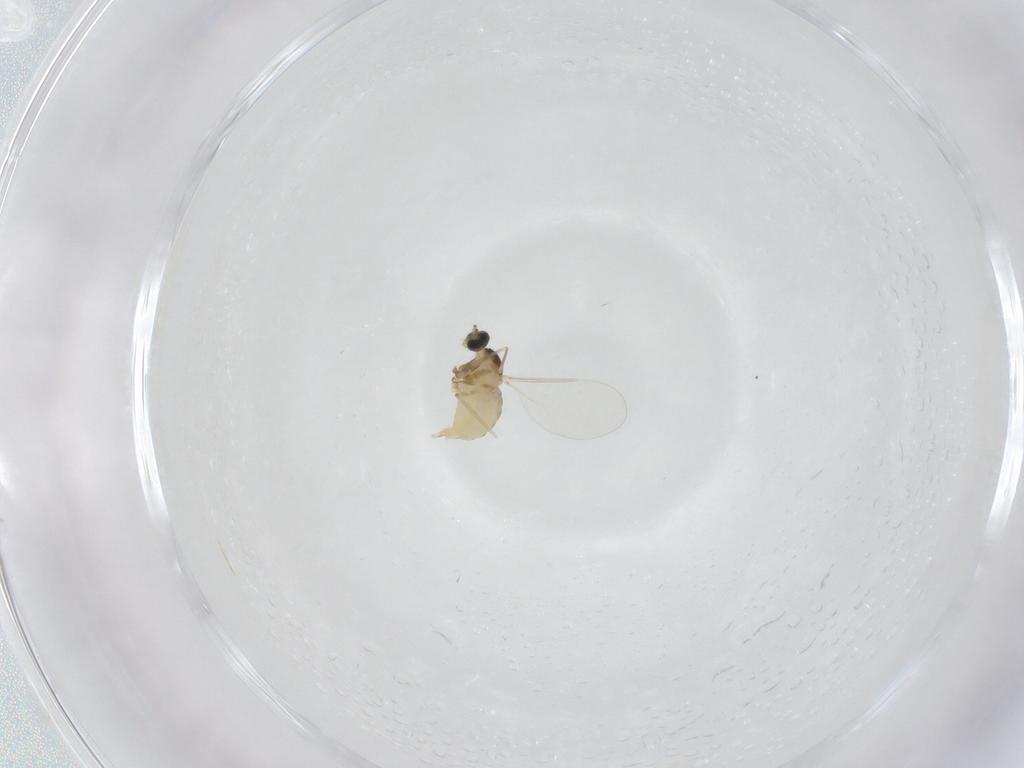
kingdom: Animalia
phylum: Arthropoda
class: Insecta
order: Diptera
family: Cecidomyiidae
